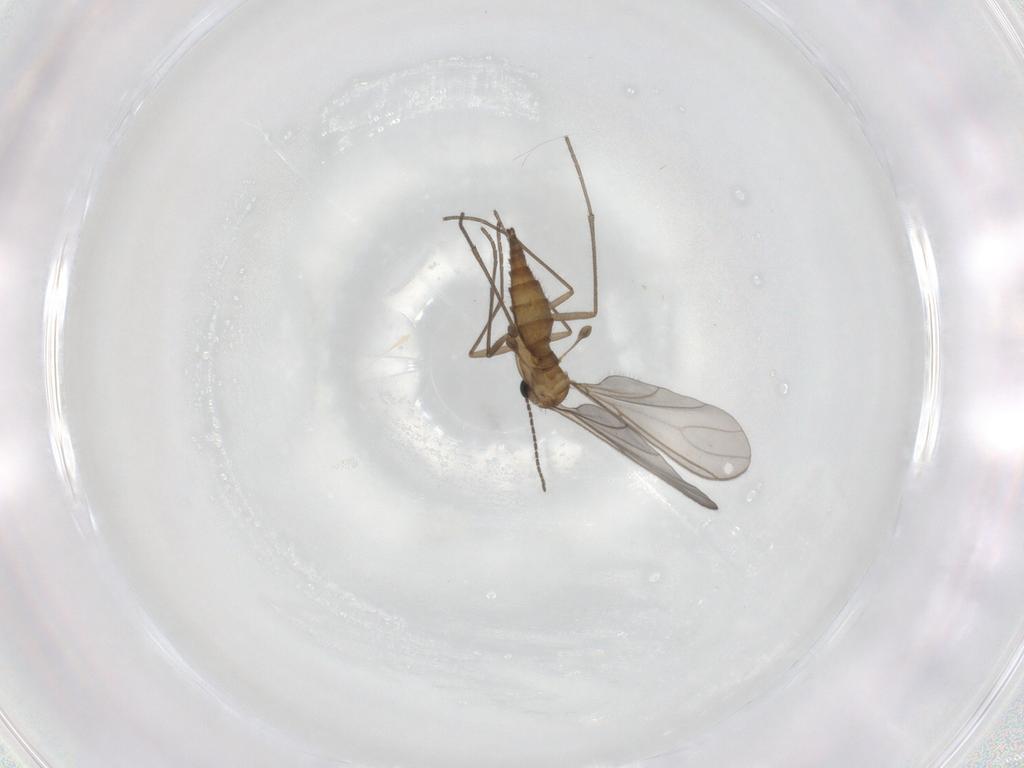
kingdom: Animalia
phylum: Arthropoda
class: Insecta
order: Diptera
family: Sciaridae
